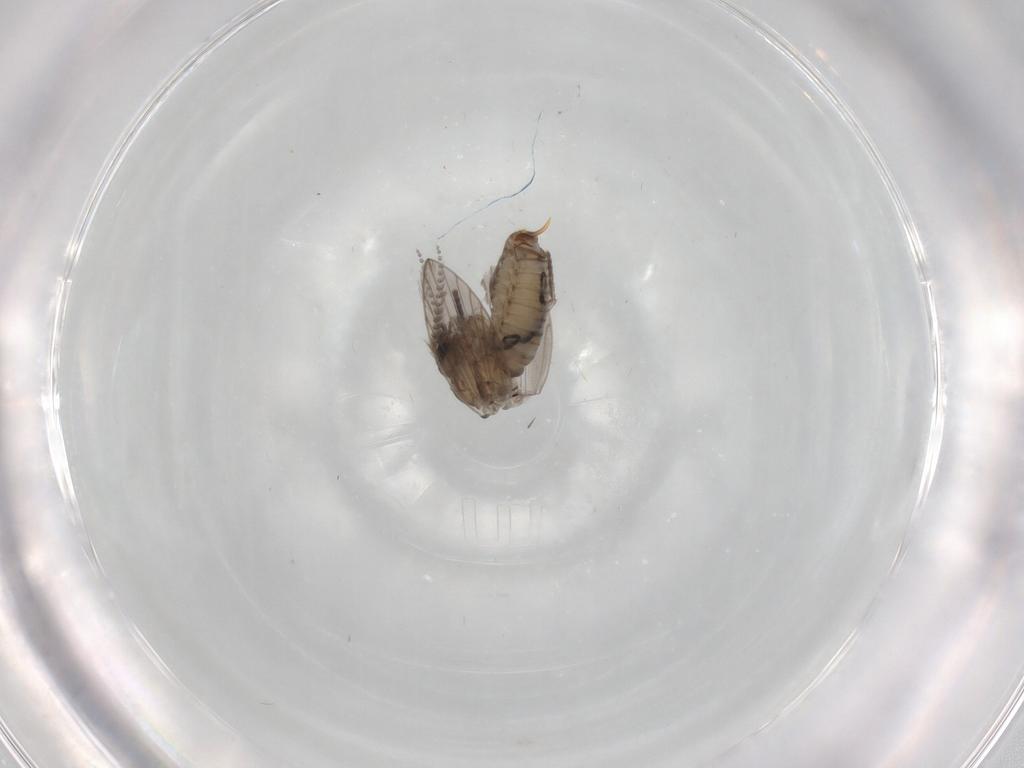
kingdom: Animalia
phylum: Arthropoda
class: Insecta
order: Diptera
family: Psychodidae
